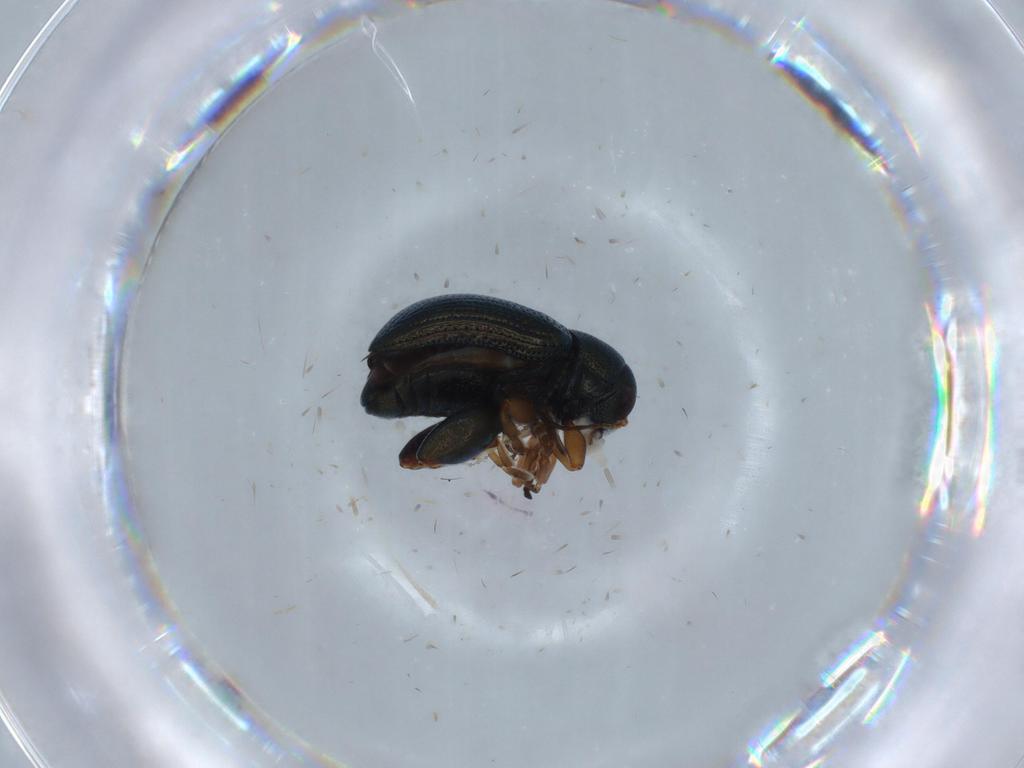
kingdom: Animalia
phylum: Arthropoda
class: Insecta
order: Coleoptera
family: Chrysomelidae
